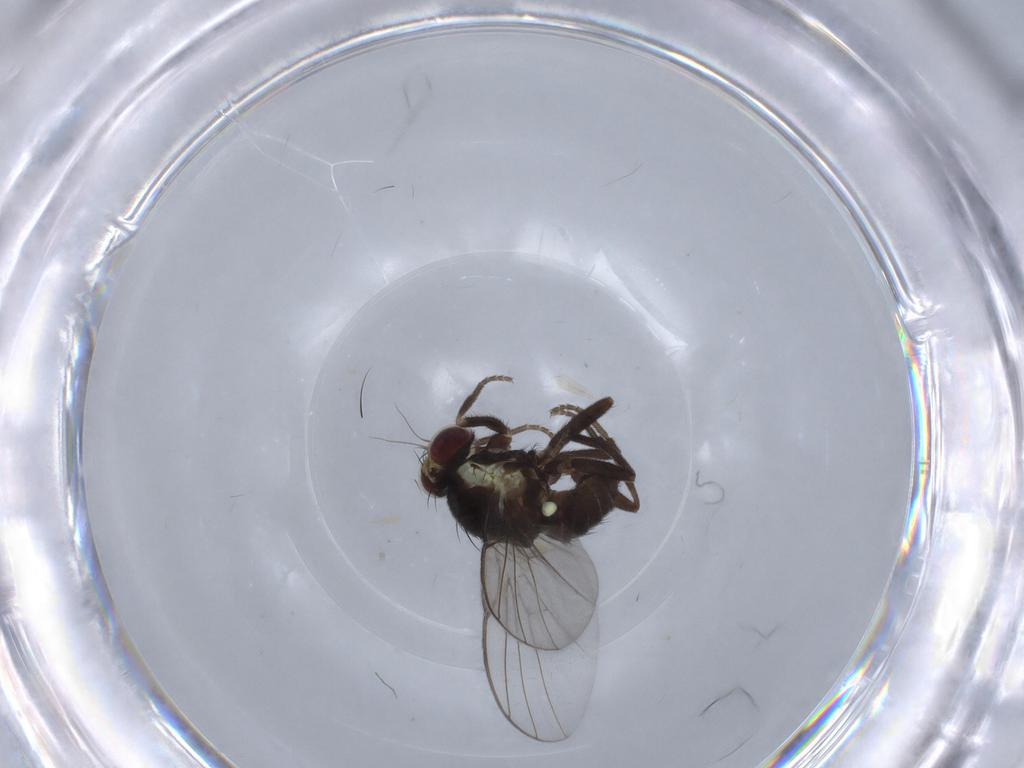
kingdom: Animalia
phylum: Arthropoda
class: Insecta
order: Diptera
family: Agromyzidae
